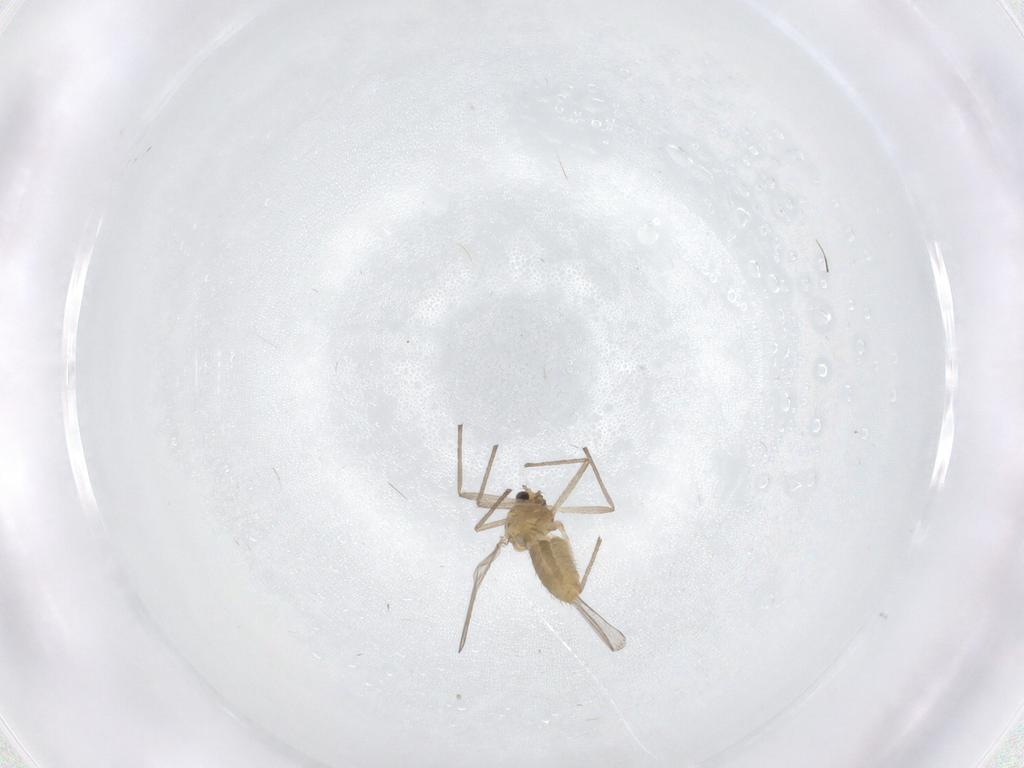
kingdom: Animalia
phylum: Arthropoda
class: Insecta
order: Diptera
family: Chironomidae
